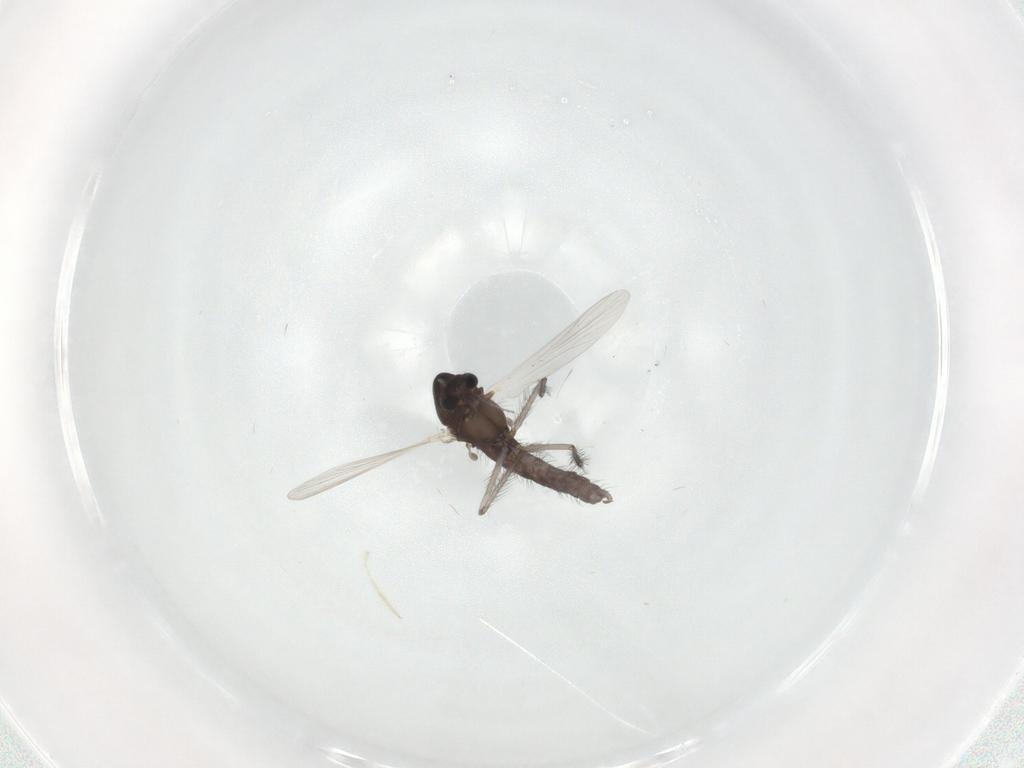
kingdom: Animalia
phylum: Arthropoda
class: Insecta
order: Diptera
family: Chironomidae
